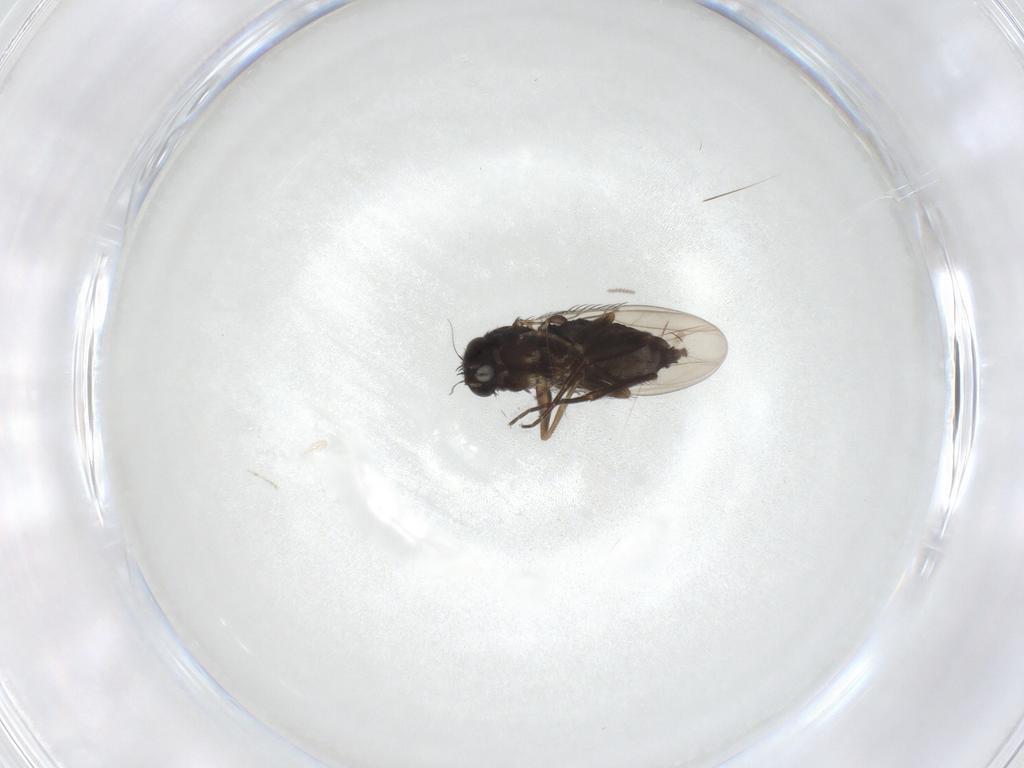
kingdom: Animalia
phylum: Arthropoda
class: Insecta
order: Diptera
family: Phoridae
